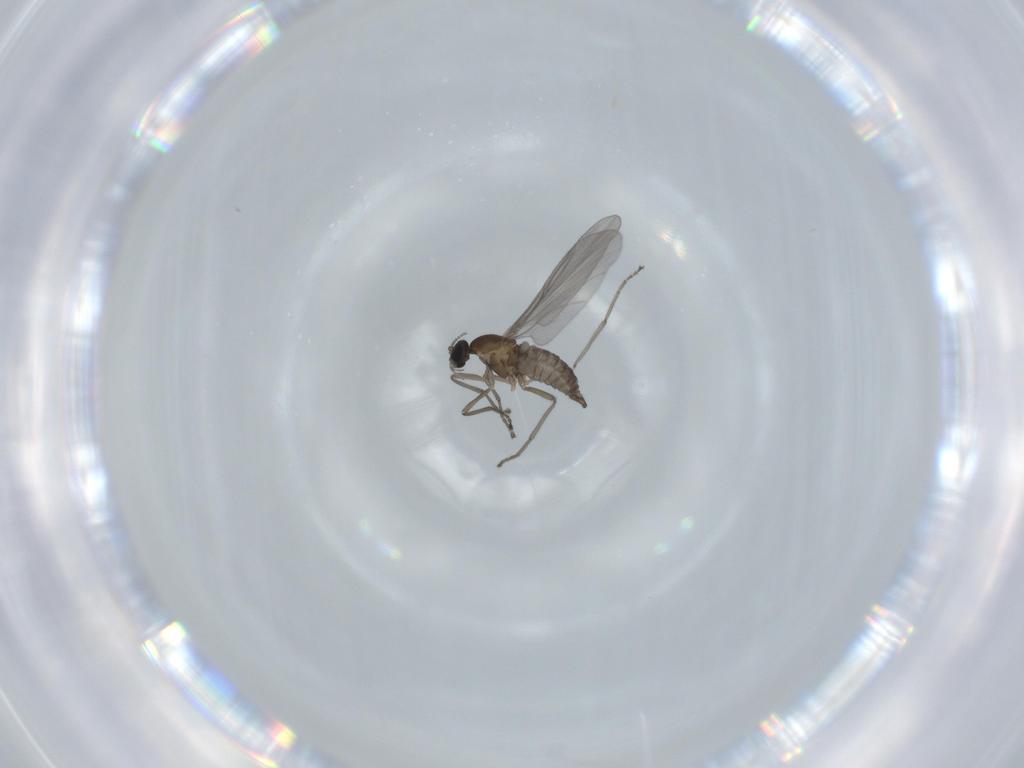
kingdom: Animalia
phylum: Arthropoda
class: Insecta
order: Diptera
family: Cecidomyiidae
